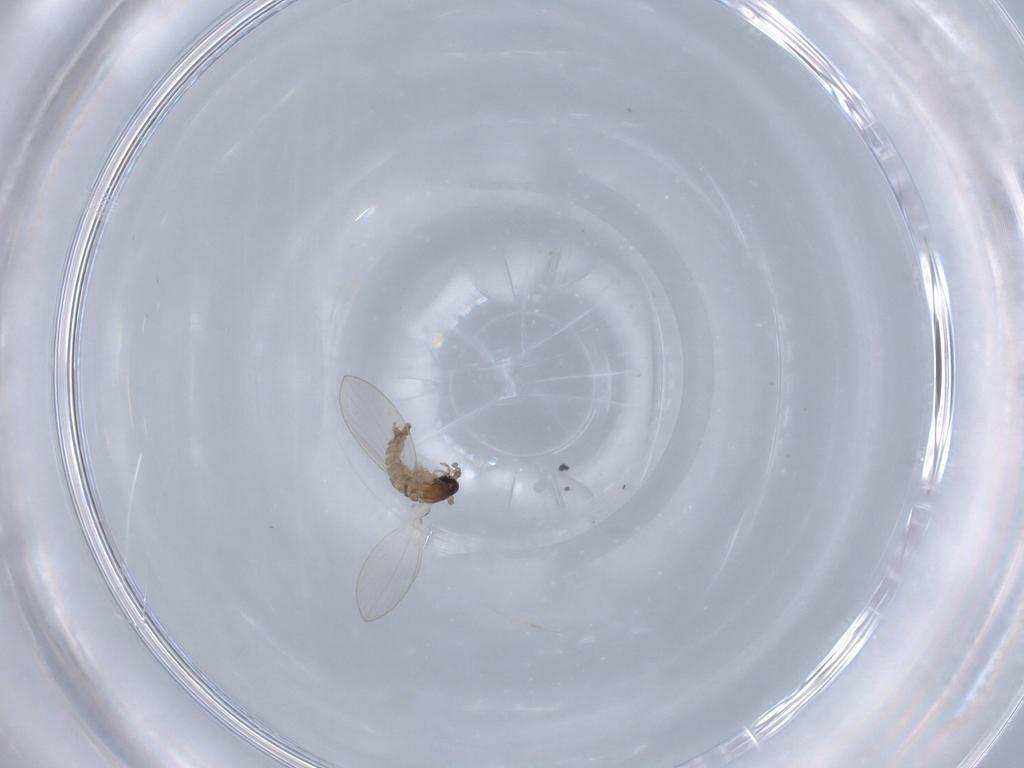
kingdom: Animalia
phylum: Arthropoda
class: Insecta
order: Diptera
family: Psychodidae
